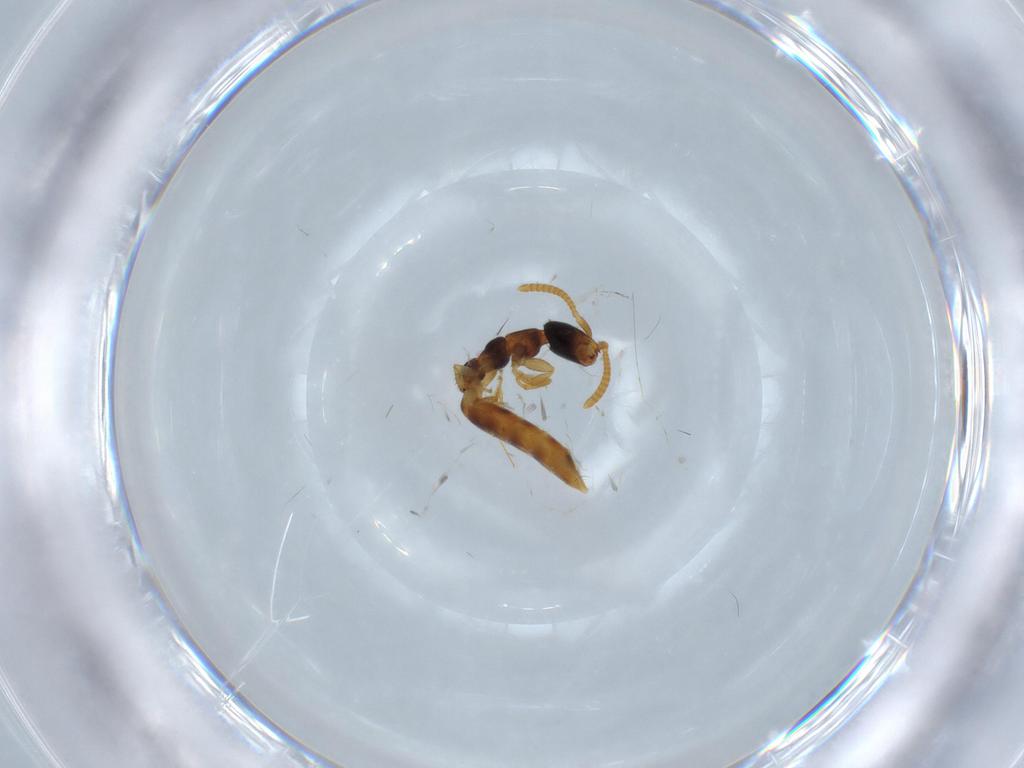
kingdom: Animalia
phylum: Arthropoda
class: Insecta
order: Hymenoptera
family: Bethylidae
